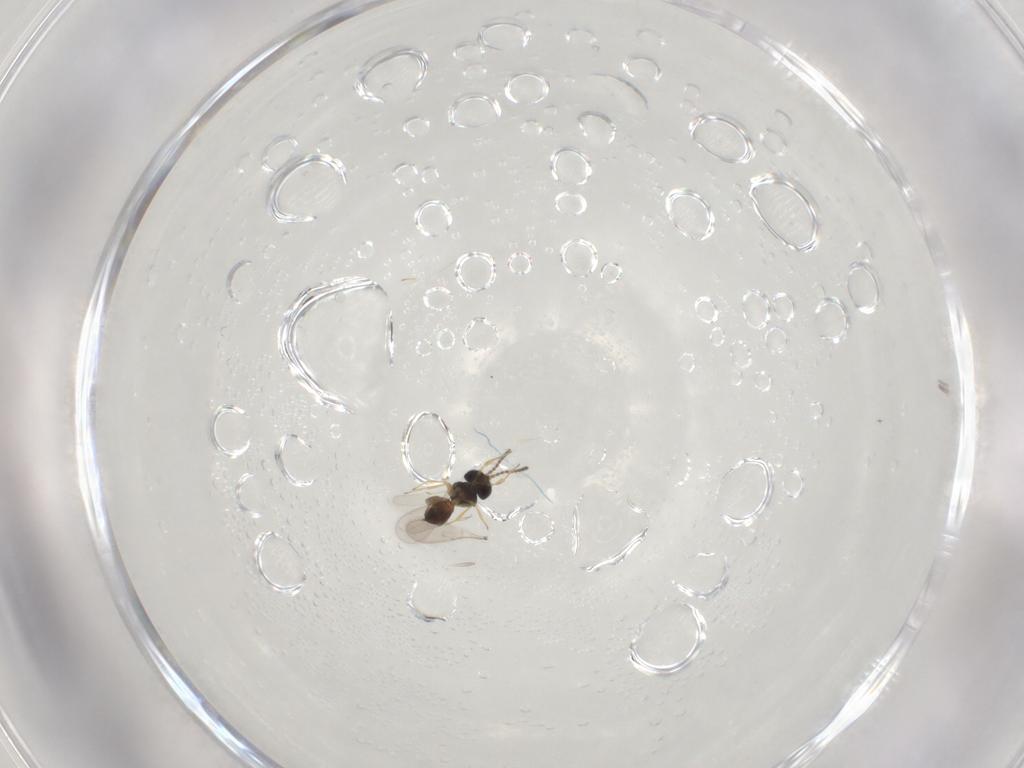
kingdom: Animalia
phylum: Arthropoda
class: Insecta
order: Hymenoptera
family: Scelionidae
